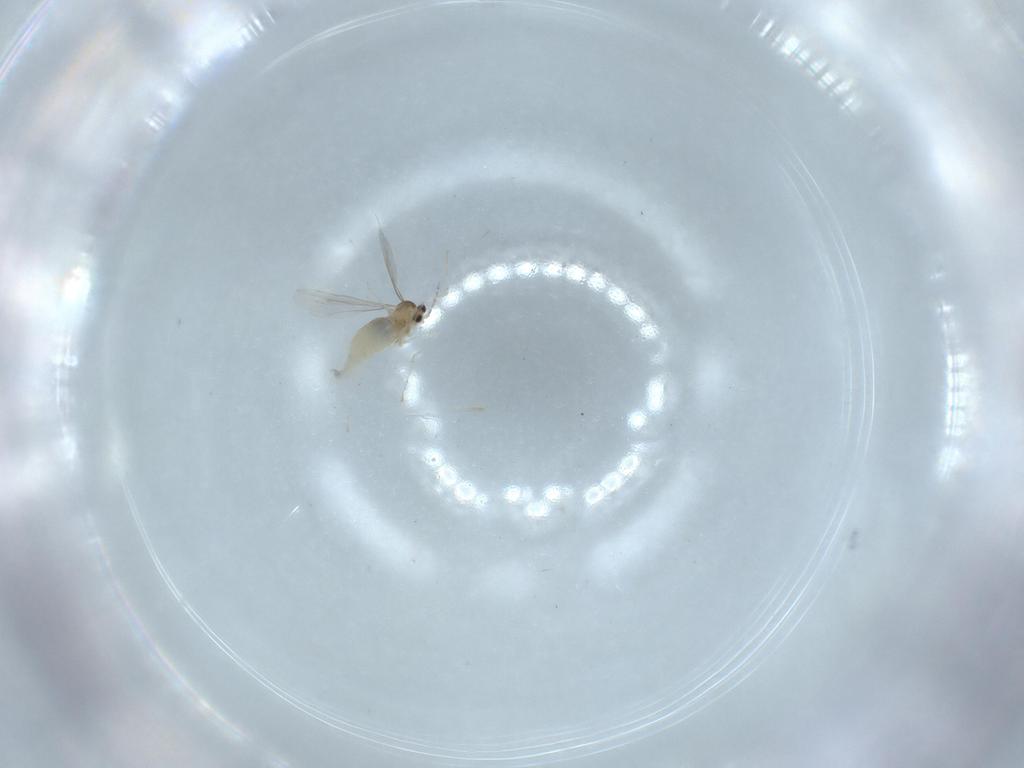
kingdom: Animalia
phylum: Arthropoda
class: Insecta
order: Diptera
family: Cecidomyiidae
